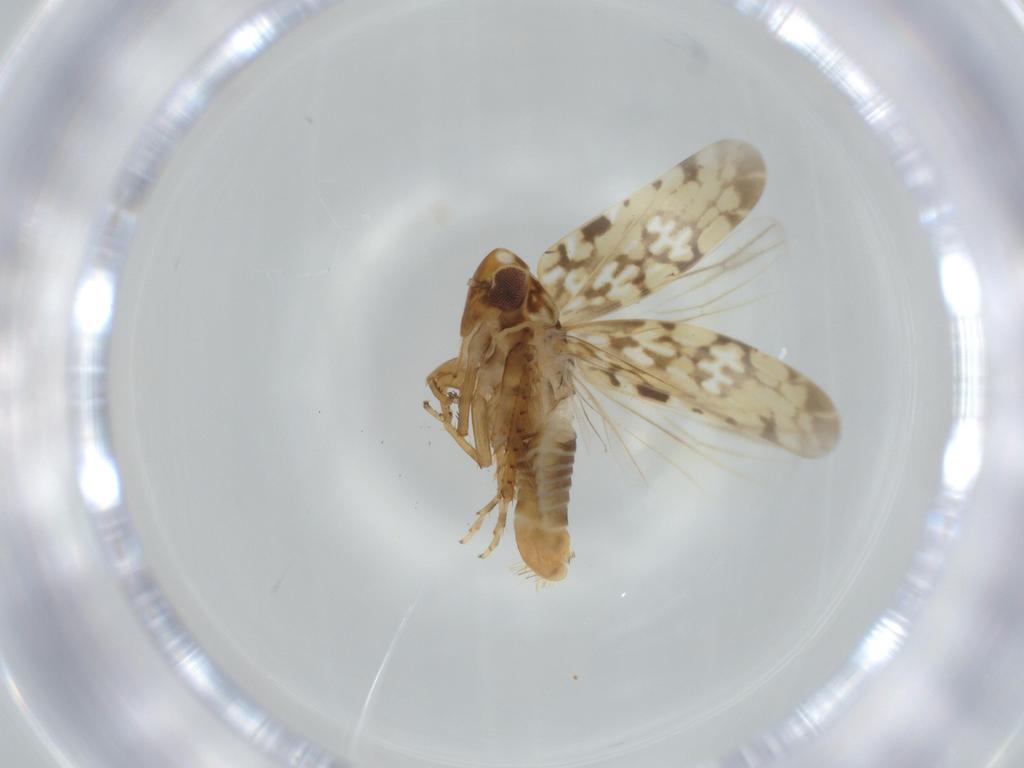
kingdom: Animalia
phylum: Arthropoda
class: Insecta
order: Hemiptera
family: Cicadellidae
